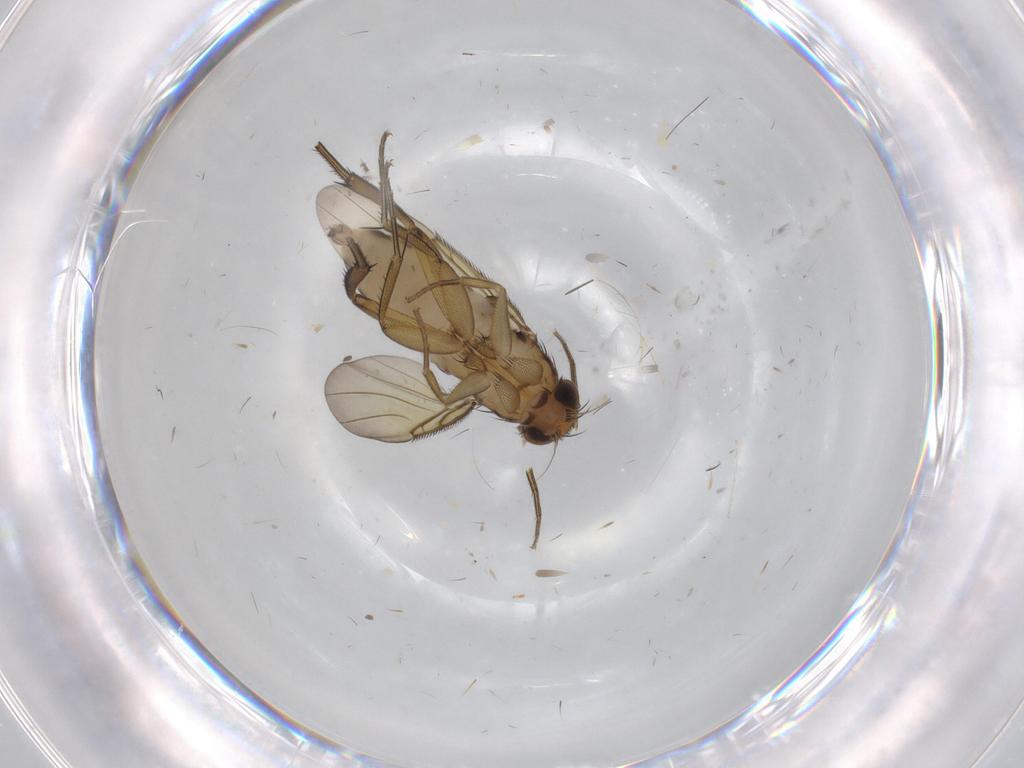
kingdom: Animalia
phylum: Arthropoda
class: Insecta
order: Diptera
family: Phoridae
